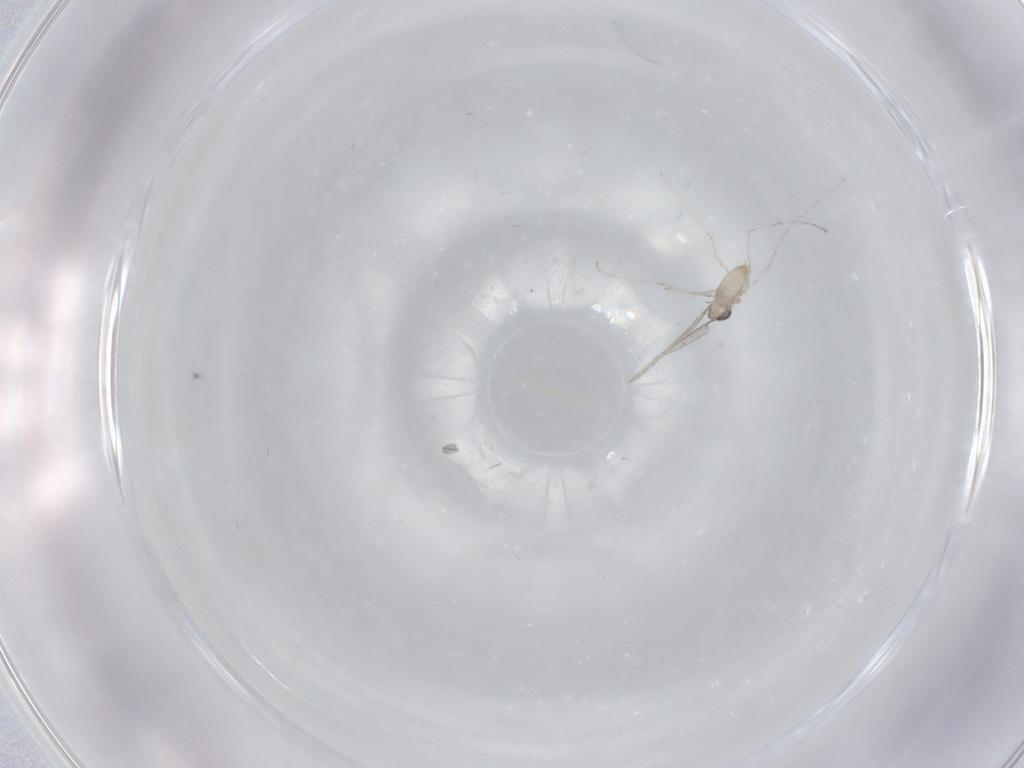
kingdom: Animalia
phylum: Arthropoda
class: Insecta
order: Diptera
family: Cecidomyiidae
